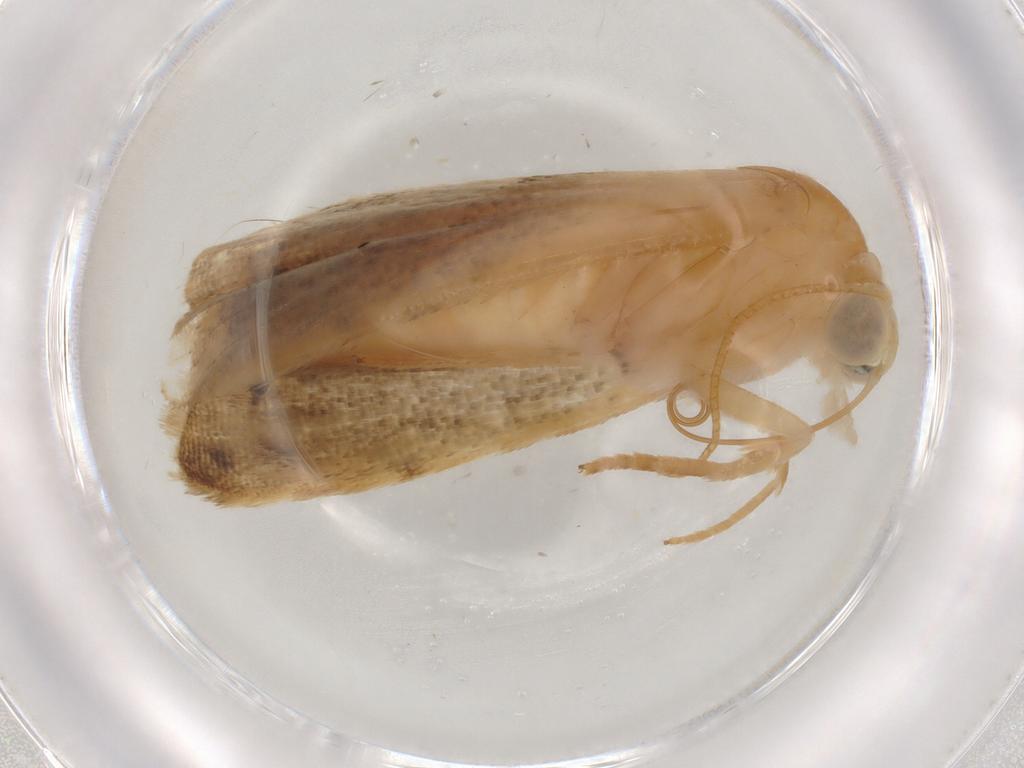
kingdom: Animalia
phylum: Arthropoda
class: Insecta
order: Lepidoptera
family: Noctuidae
